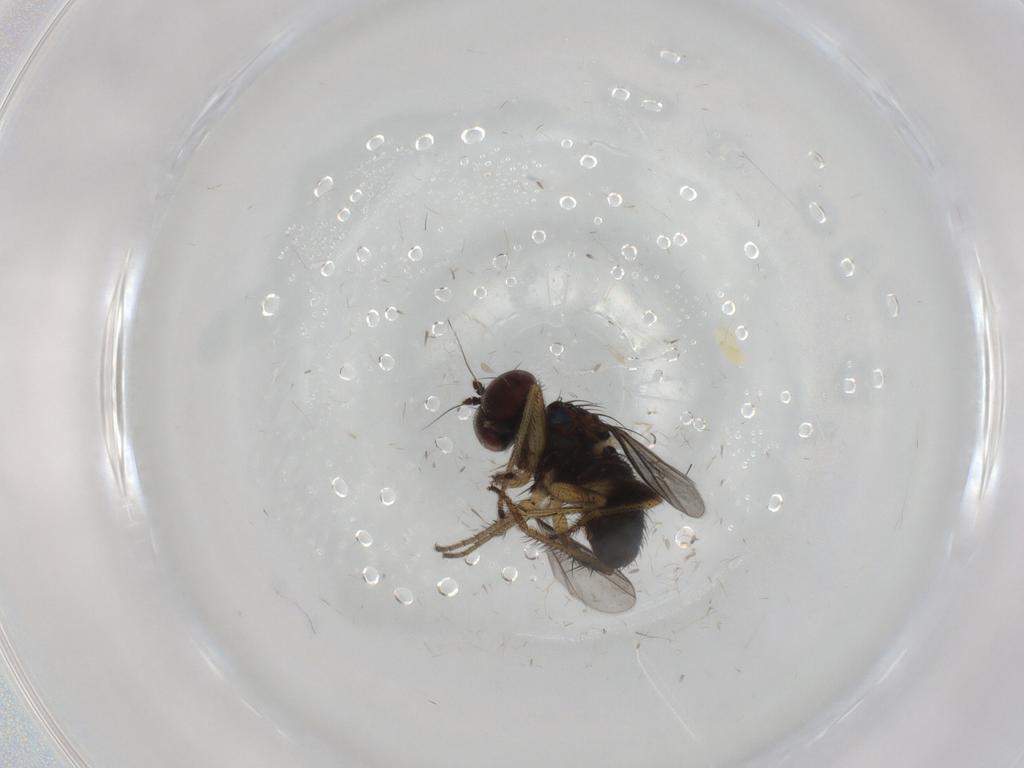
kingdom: Animalia
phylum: Arthropoda
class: Insecta
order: Diptera
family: Dolichopodidae
